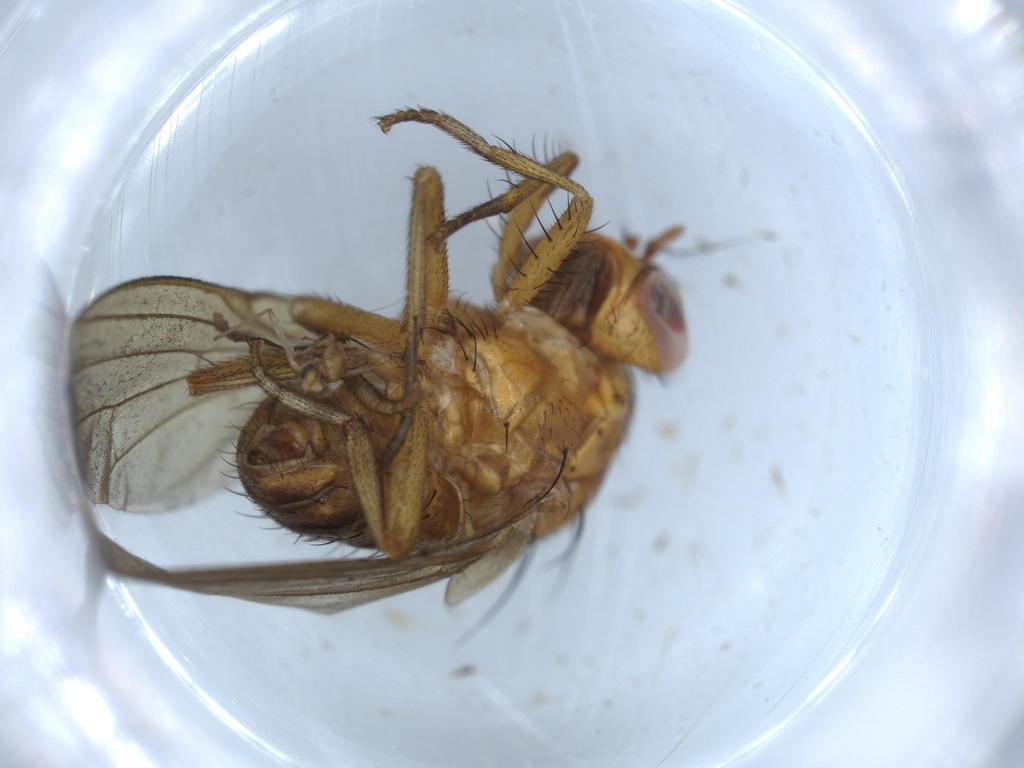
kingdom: Animalia
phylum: Arthropoda
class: Insecta
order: Diptera
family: Chironomidae
